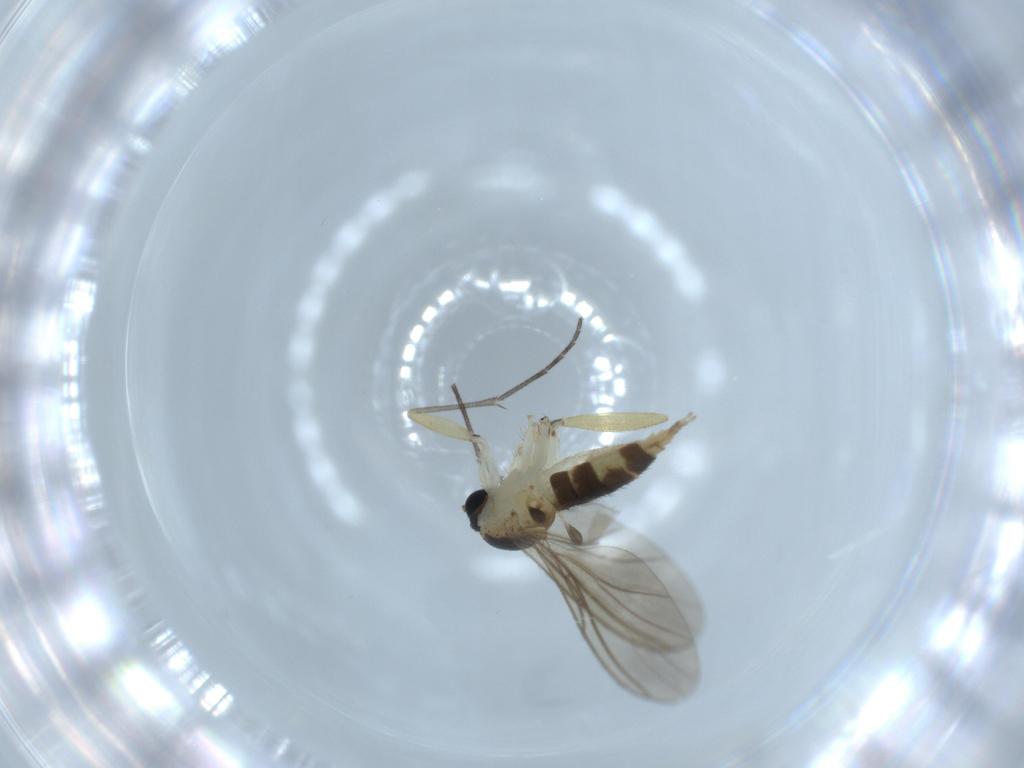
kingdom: Animalia
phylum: Arthropoda
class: Insecta
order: Diptera
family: Sciaridae
